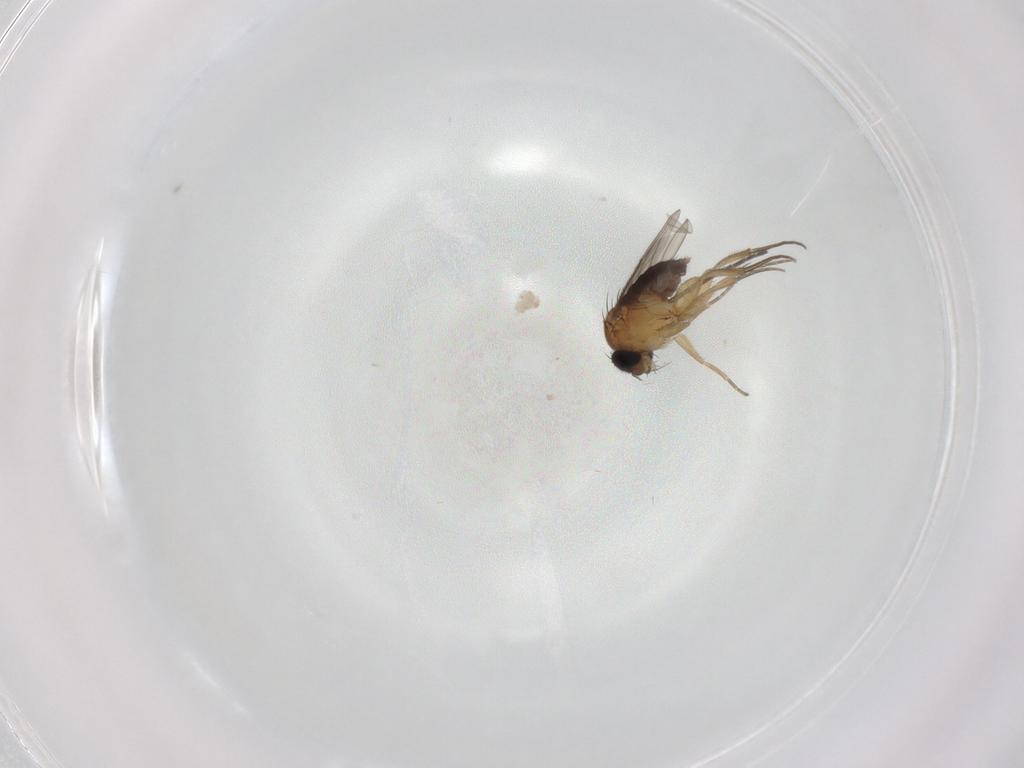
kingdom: Animalia
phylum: Arthropoda
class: Insecta
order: Diptera
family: Phoridae
